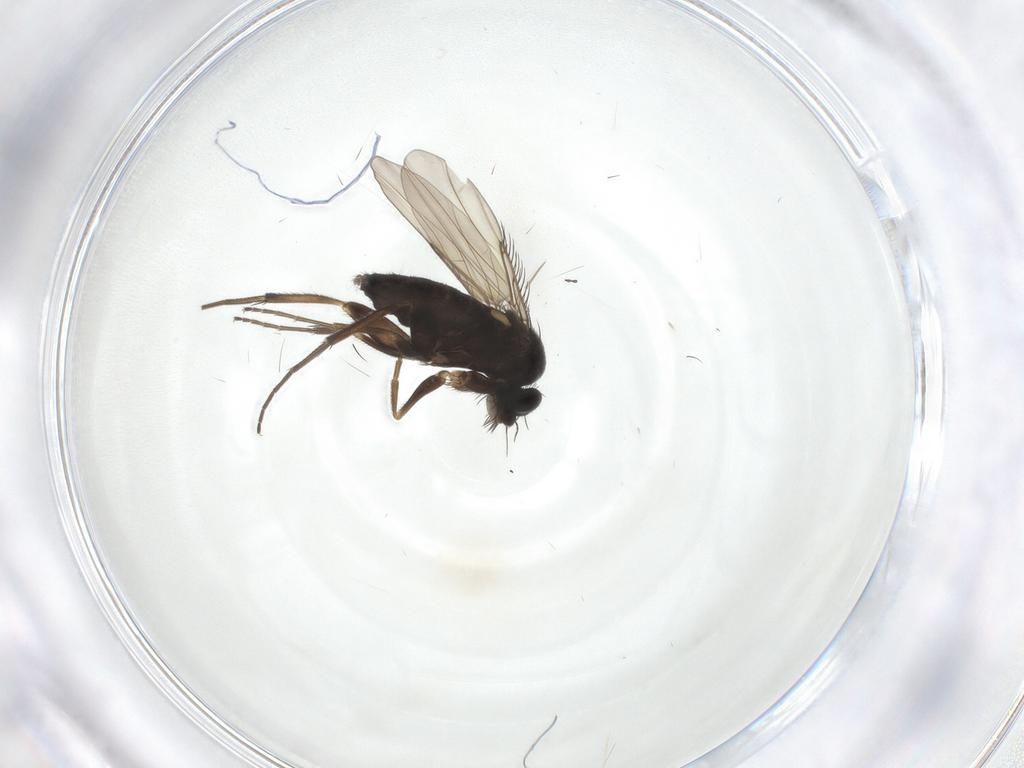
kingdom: Animalia
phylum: Arthropoda
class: Insecta
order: Diptera
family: Phoridae
